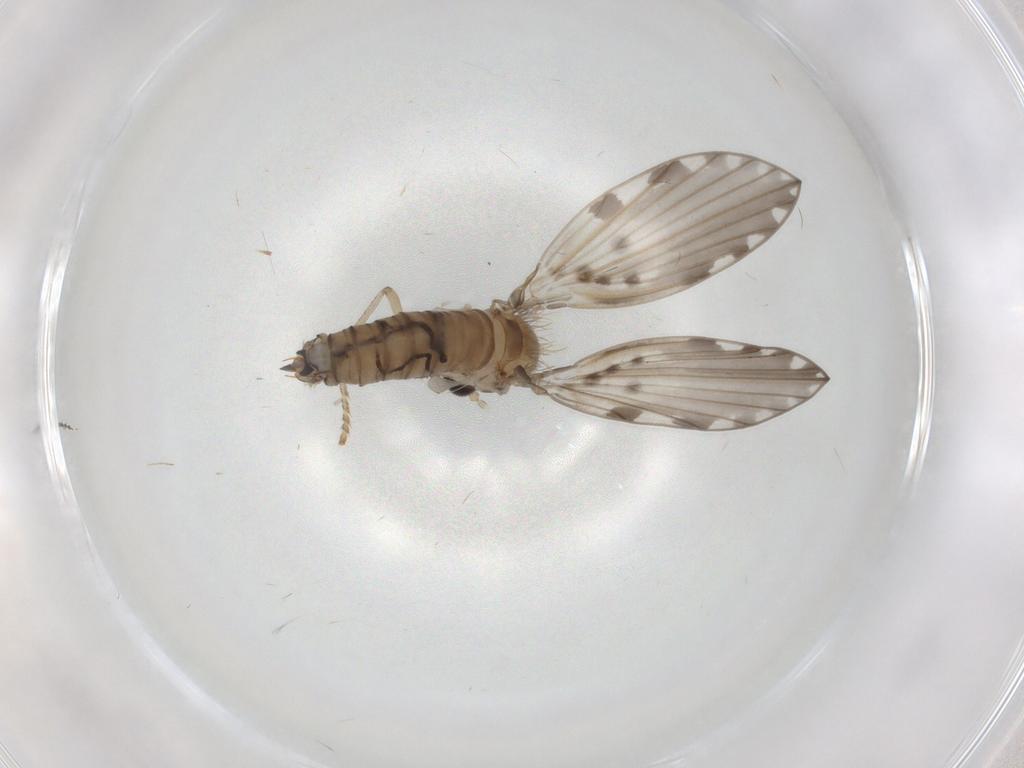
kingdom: Animalia
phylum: Arthropoda
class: Insecta
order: Diptera
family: Psychodidae
